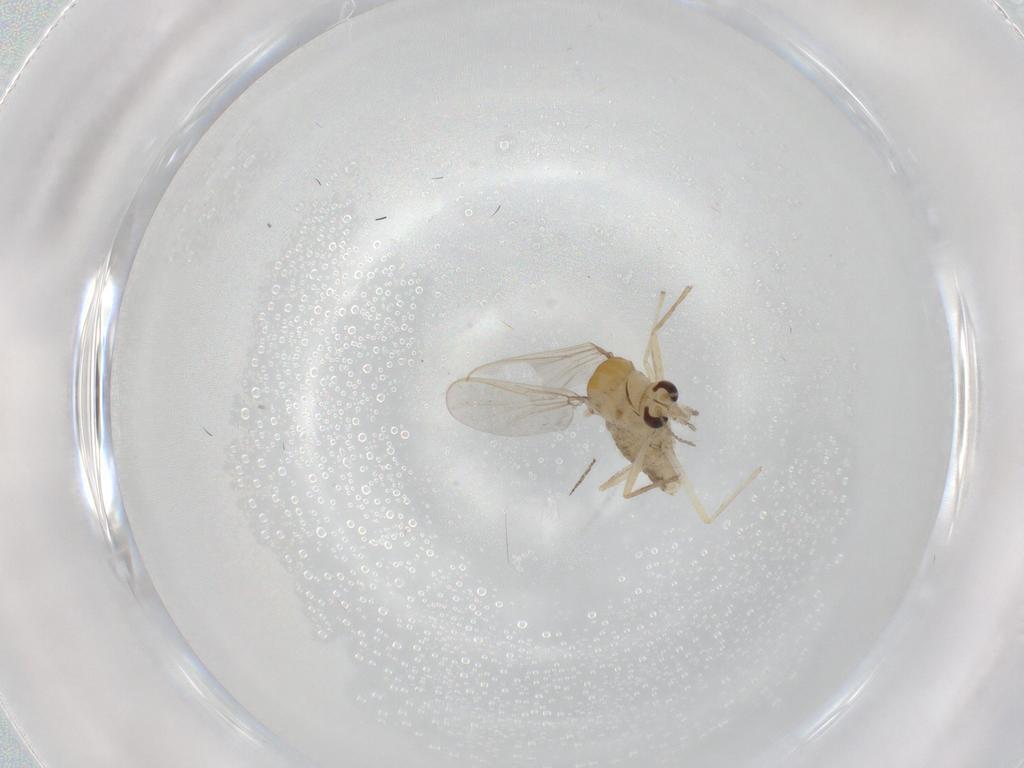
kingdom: Animalia
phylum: Arthropoda
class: Insecta
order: Diptera
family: Chironomidae
